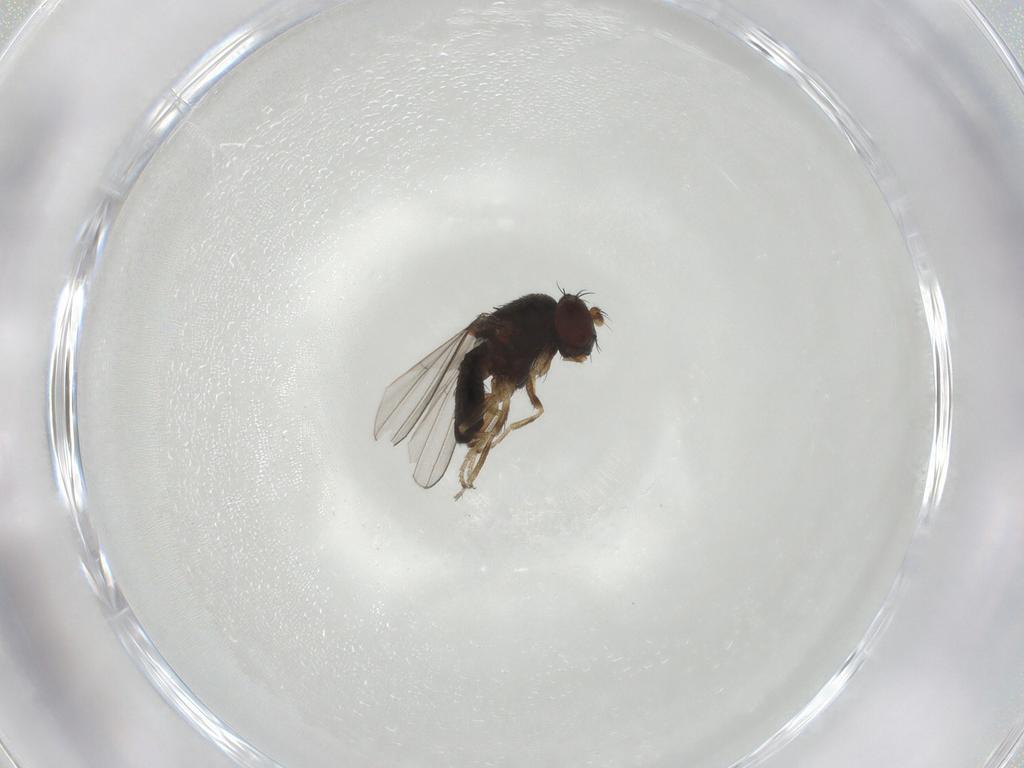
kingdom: Animalia
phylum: Arthropoda
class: Insecta
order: Diptera
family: Ephydridae
